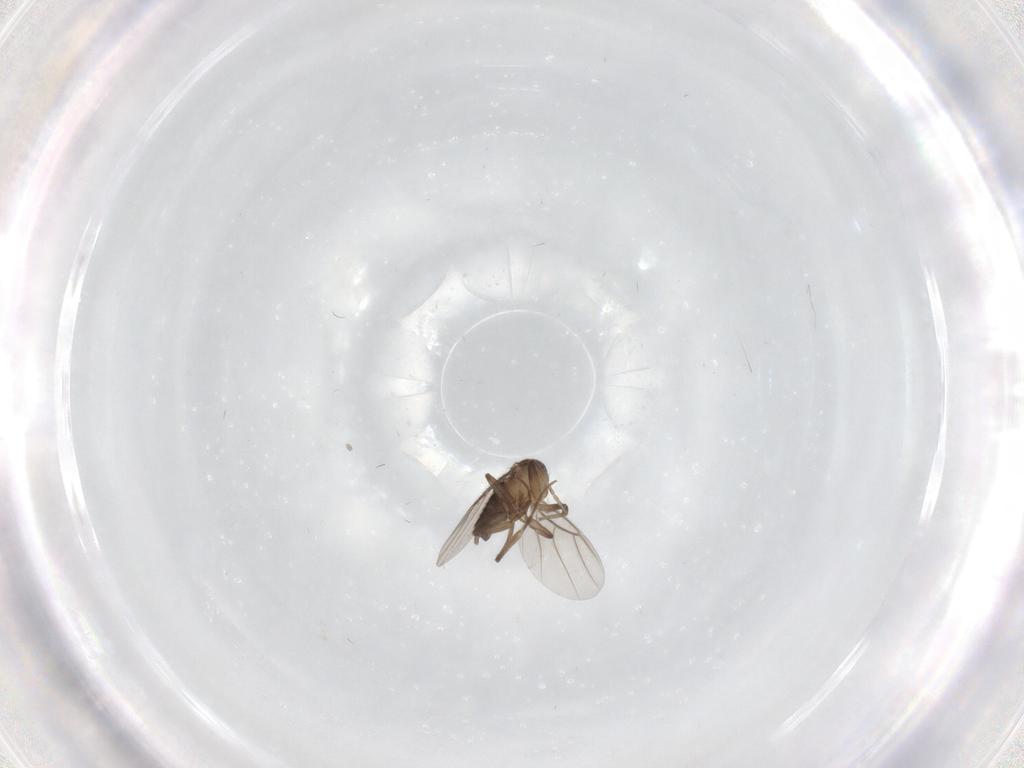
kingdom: Animalia
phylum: Arthropoda
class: Insecta
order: Diptera
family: Phoridae
